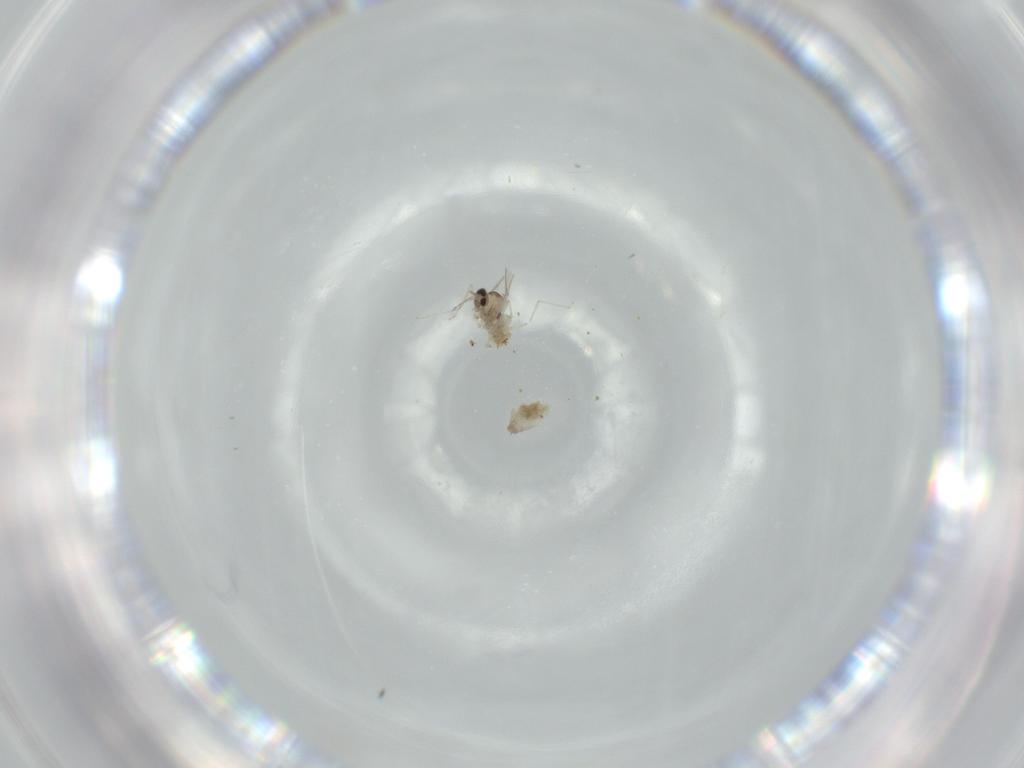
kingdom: Animalia
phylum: Arthropoda
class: Insecta
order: Diptera
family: Cecidomyiidae
